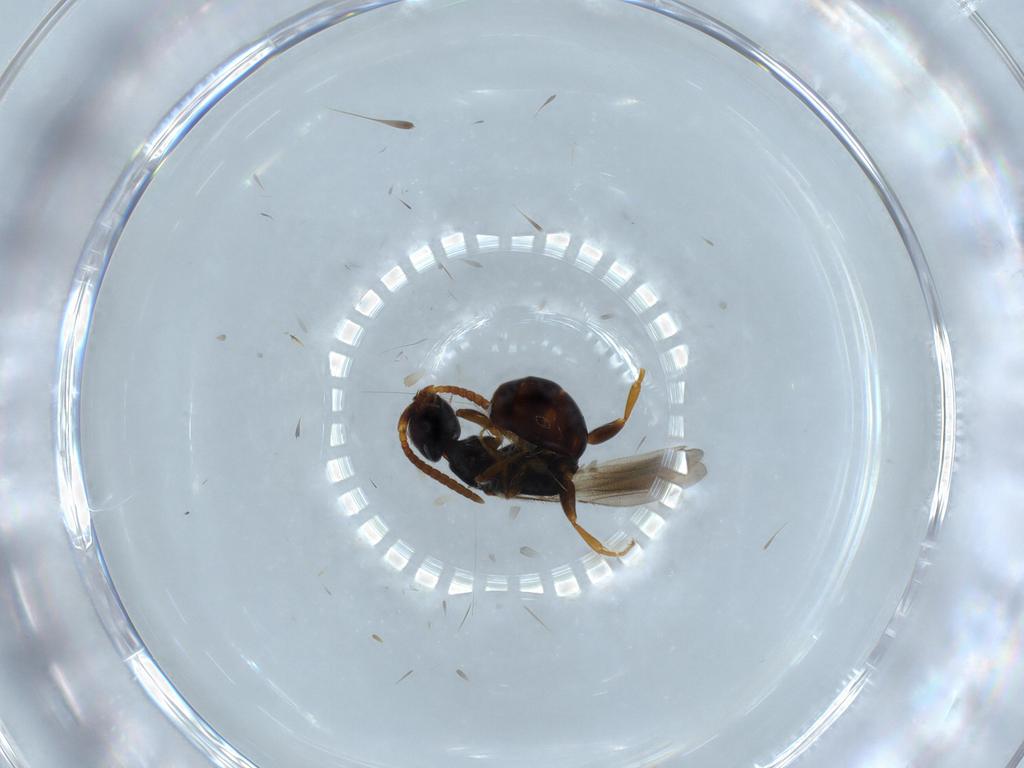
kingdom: Animalia
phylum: Arthropoda
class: Insecta
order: Hymenoptera
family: Bethylidae
